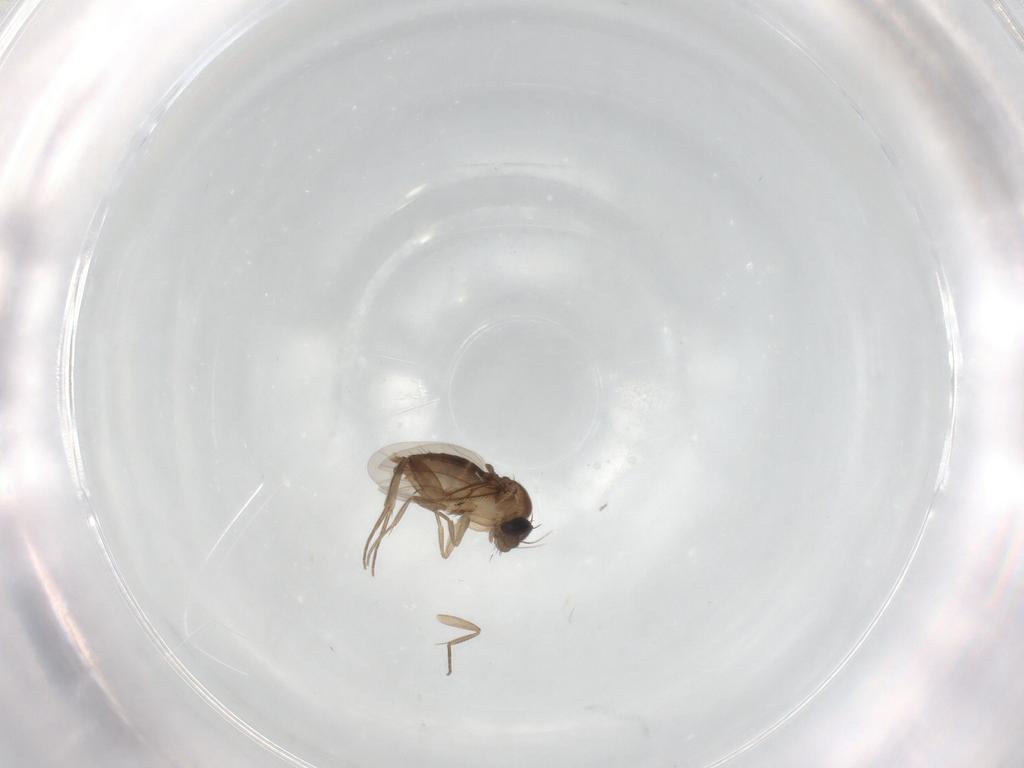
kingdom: Animalia
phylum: Arthropoda
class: Insecta
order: Diptera
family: Phoridae
